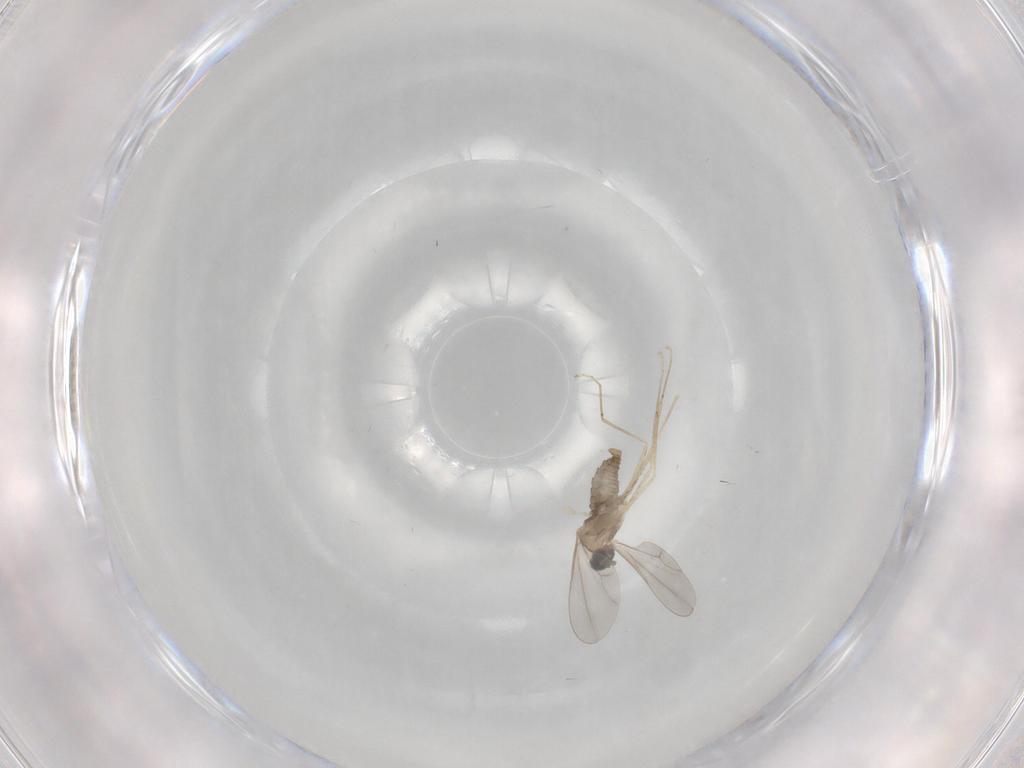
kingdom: Animalia
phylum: Arthropoda
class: Insecta
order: Diptera
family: Cecidomyiidae
